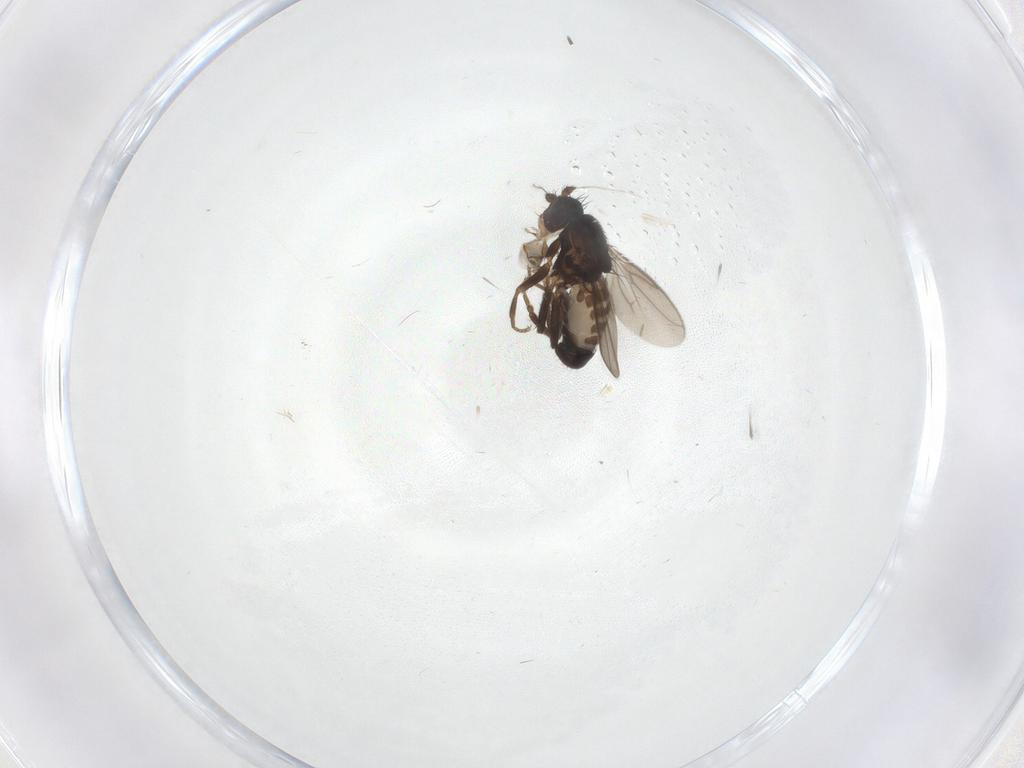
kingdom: Animalia
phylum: Arthropoda
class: Insecta
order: Diptera
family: Sphaeroceridae
